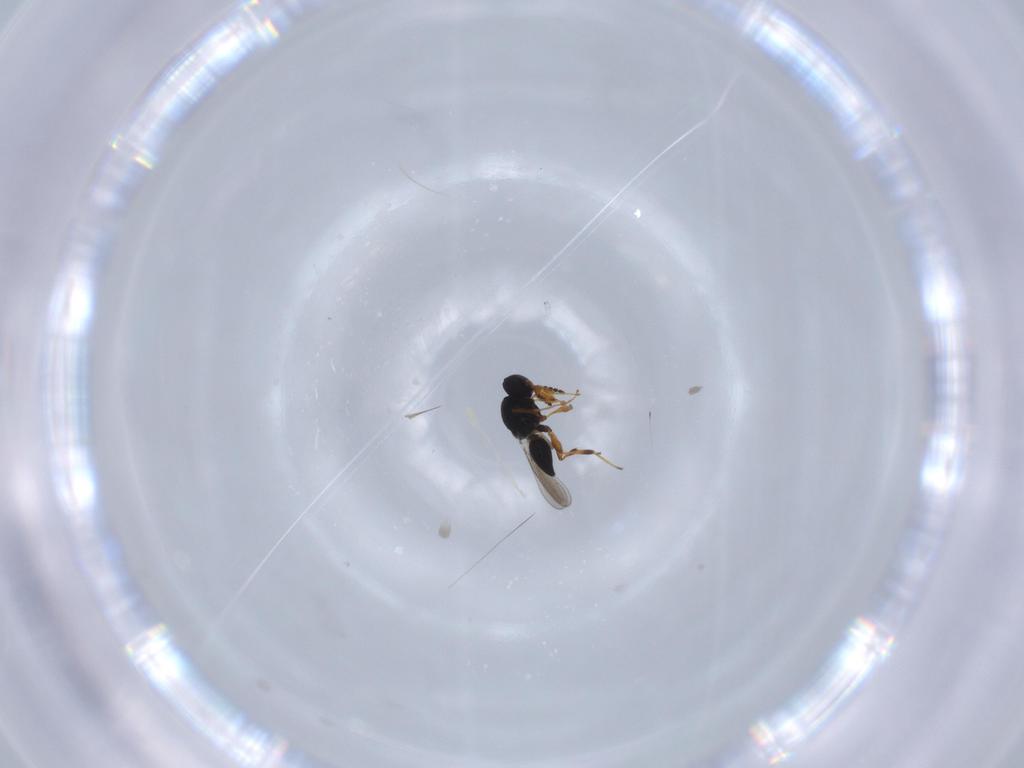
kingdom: Animalia
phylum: Arthropoda
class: Insecta
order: Hymenoptera
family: Platygastridae
